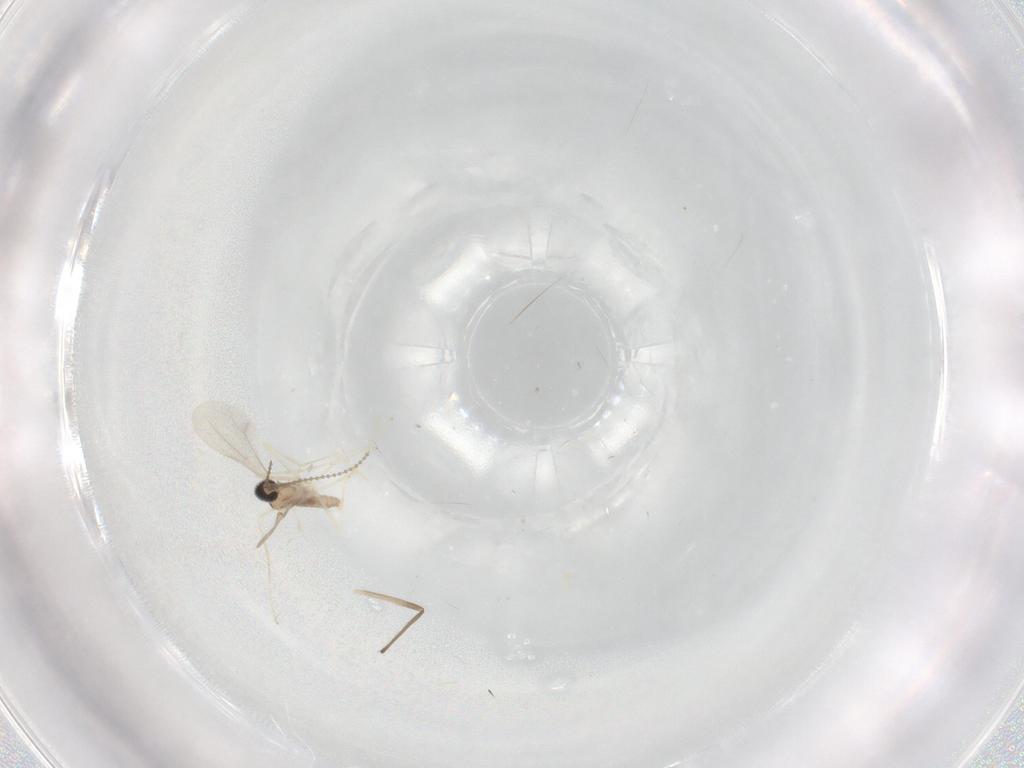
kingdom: Animalia
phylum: Arthropoda
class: Insecta
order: Diptera
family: Cecidomyiidae
